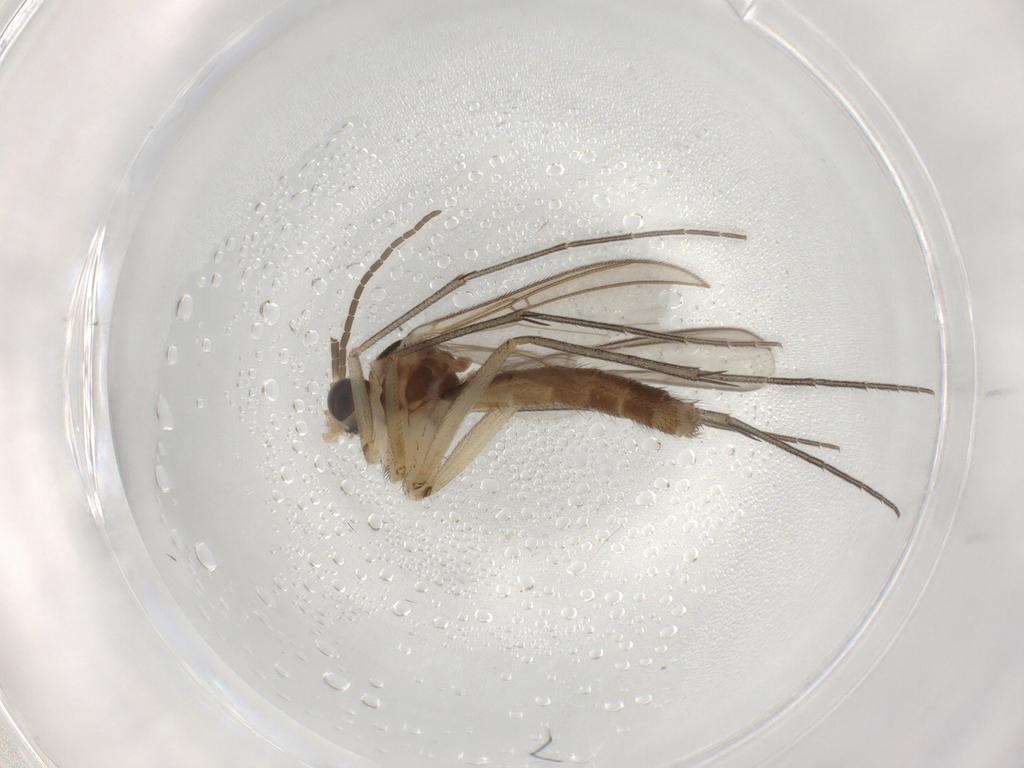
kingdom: Animalia
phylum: Arthropoda
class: Insecta
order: Diptera
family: Mycetophilidae
